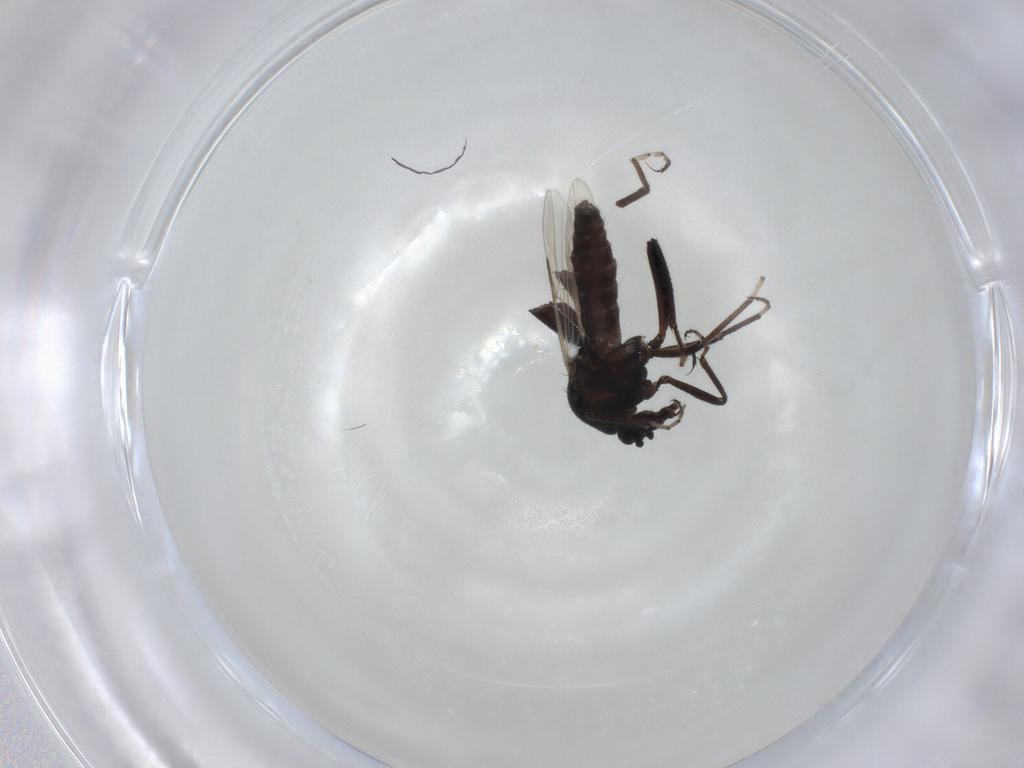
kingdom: Animalia
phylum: Arthropoda
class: Insecta
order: Diptera
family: Ceratopogonidae
